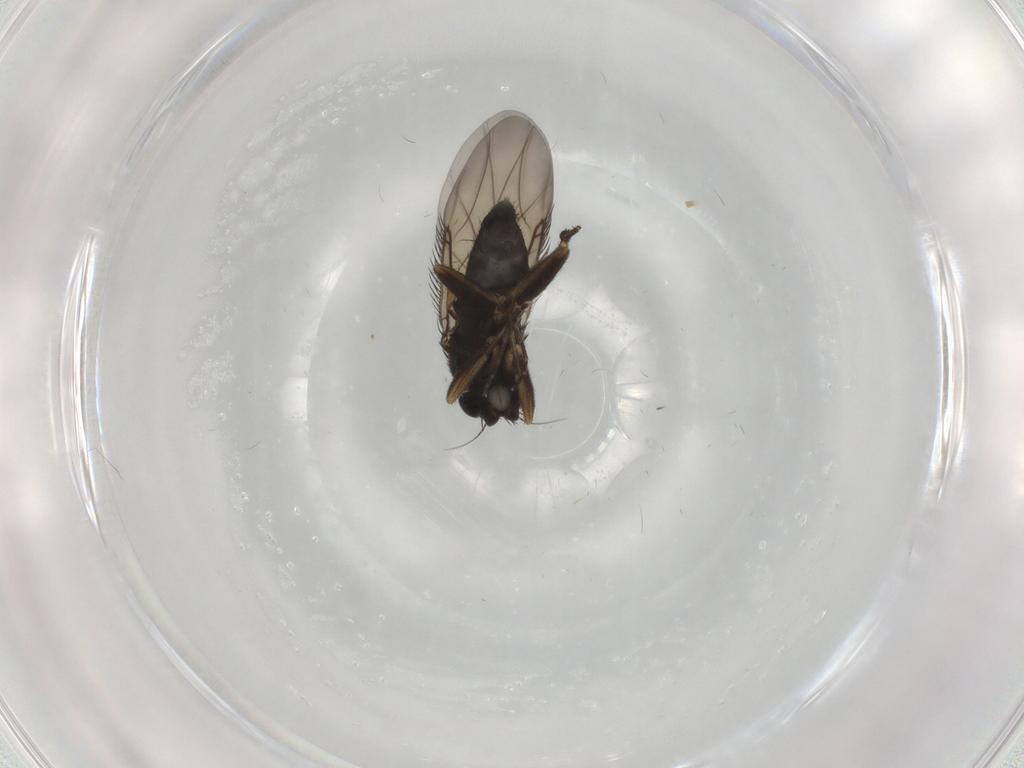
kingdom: Animalia
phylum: Arthropoda
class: Insecta
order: Diptera
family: Phoridae
